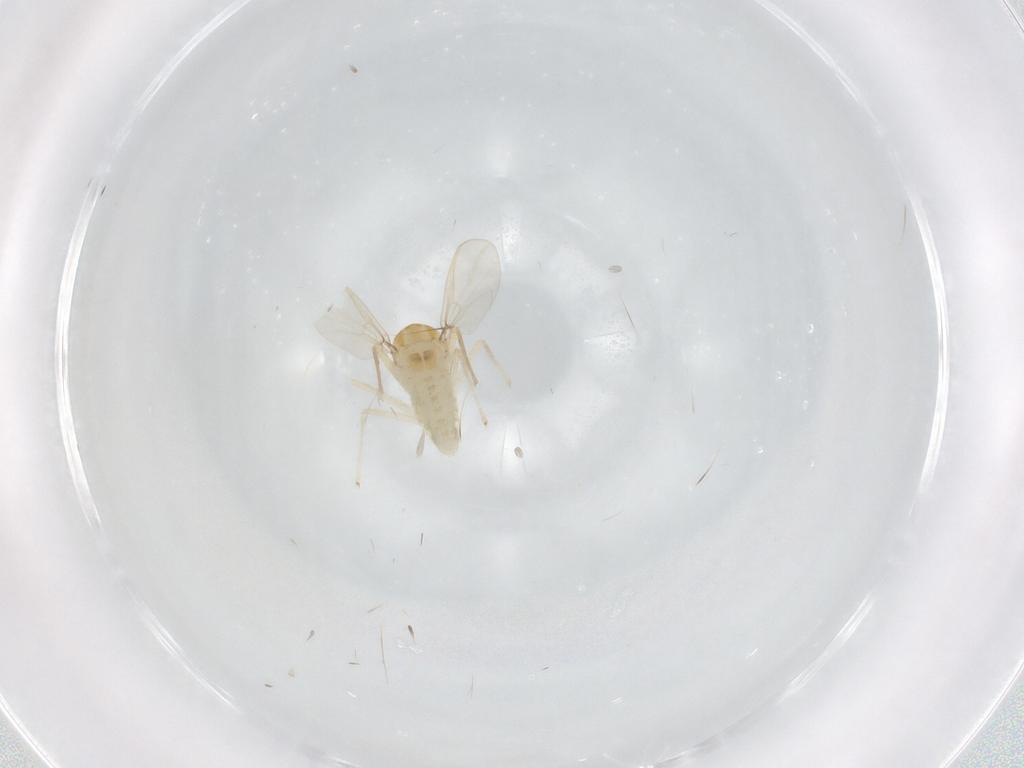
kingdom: Animalia
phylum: Arthropoda
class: Insecta
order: Diptera
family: Chironomidae
